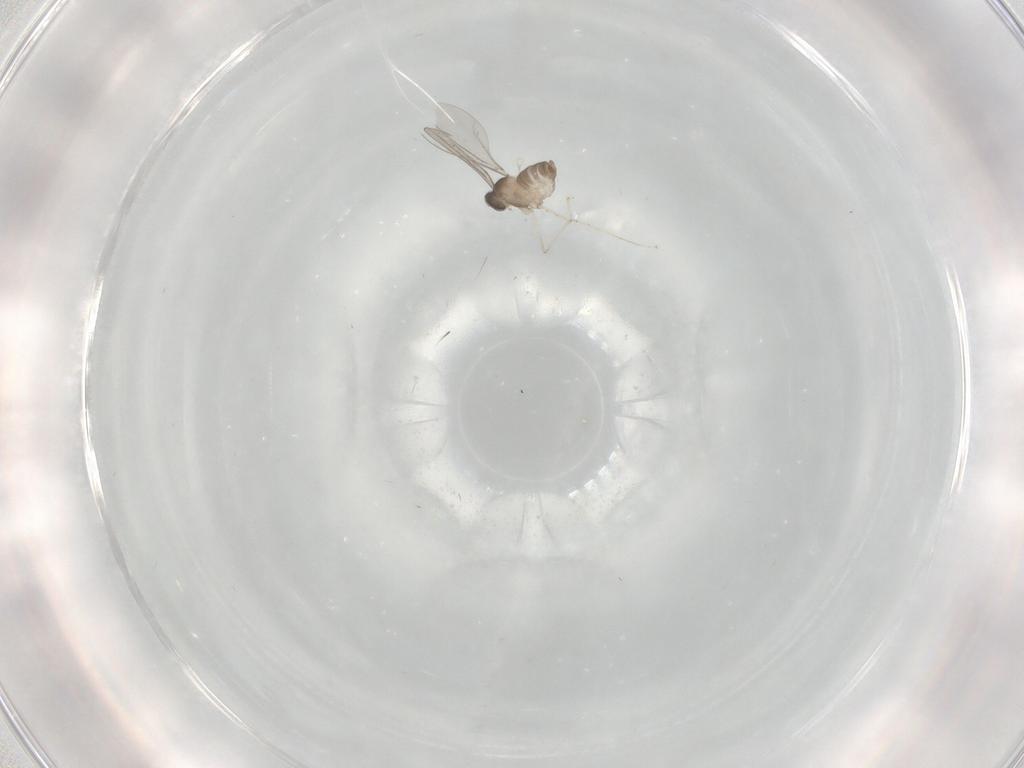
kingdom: Animalia
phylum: Arthropoda
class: Insecta
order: Diptera
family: Cecidomyiidae
